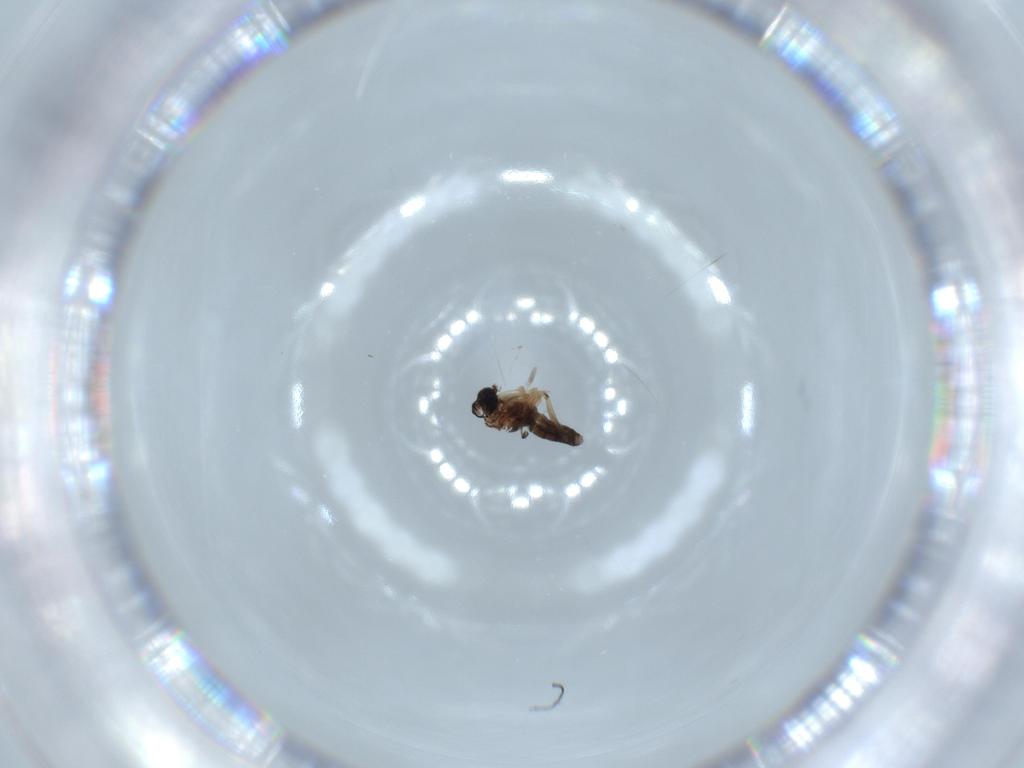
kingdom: Animalia
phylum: Arthropoda
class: Insecta
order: Diptera
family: Sciaridae
